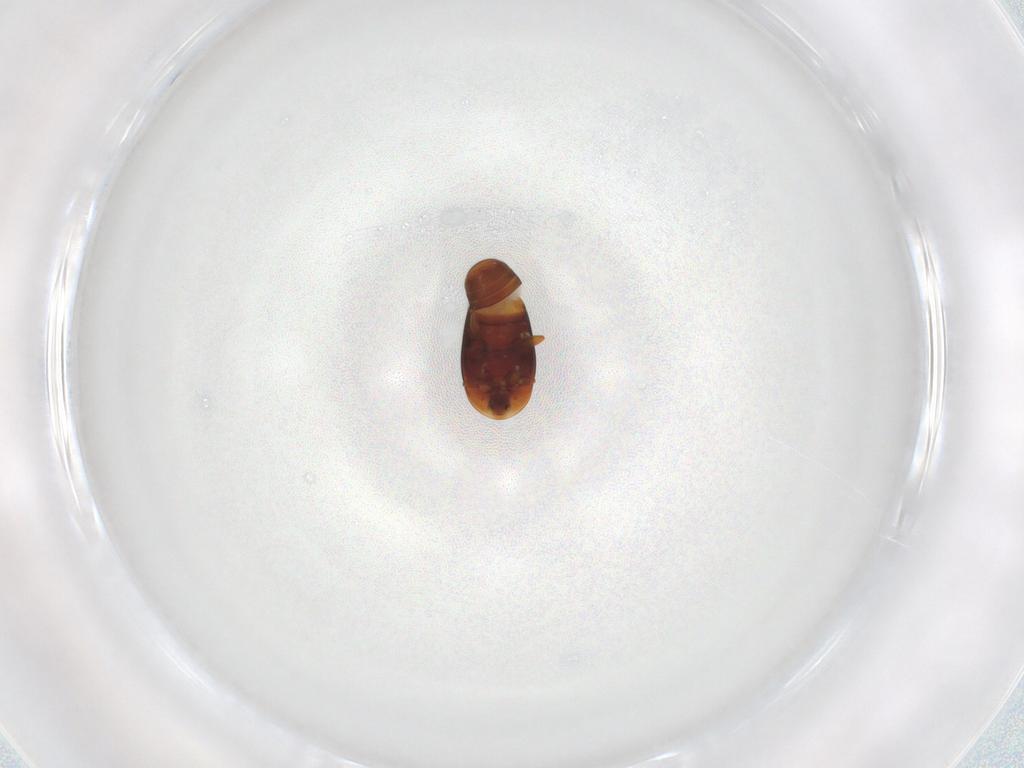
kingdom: Animalia
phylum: Arthropoda
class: Insecta
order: Coleoptera
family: Corylophidae
